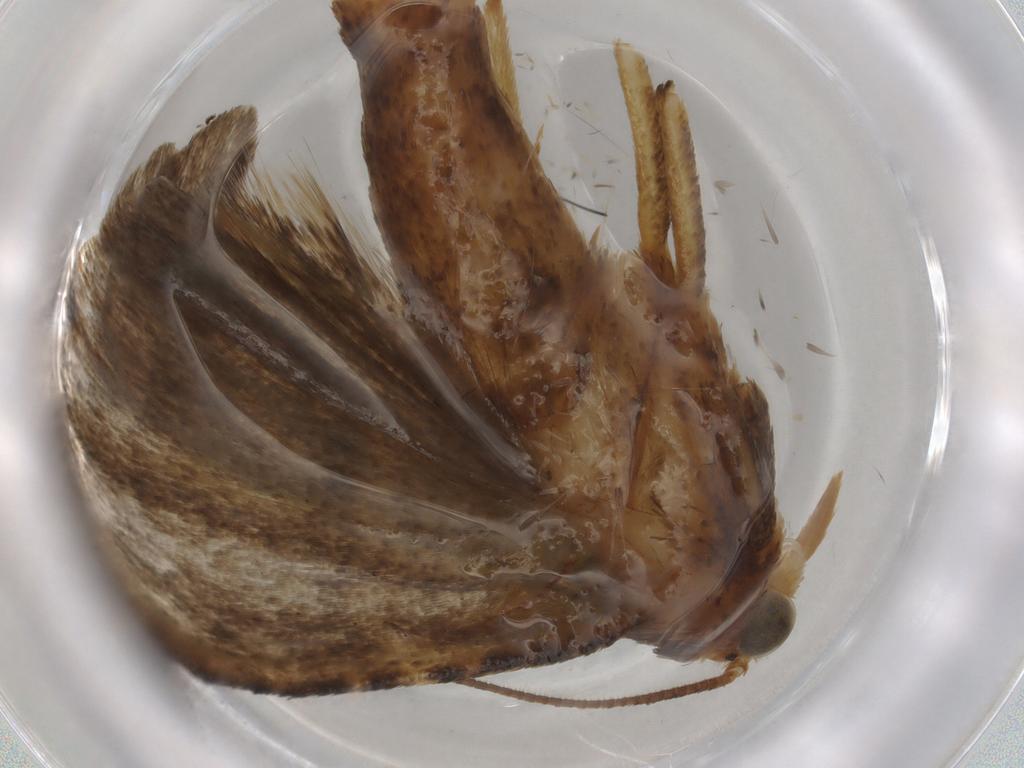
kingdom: Animalia
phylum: Arthropoda
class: Insecta
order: Lepidoptera
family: Pyralidae
